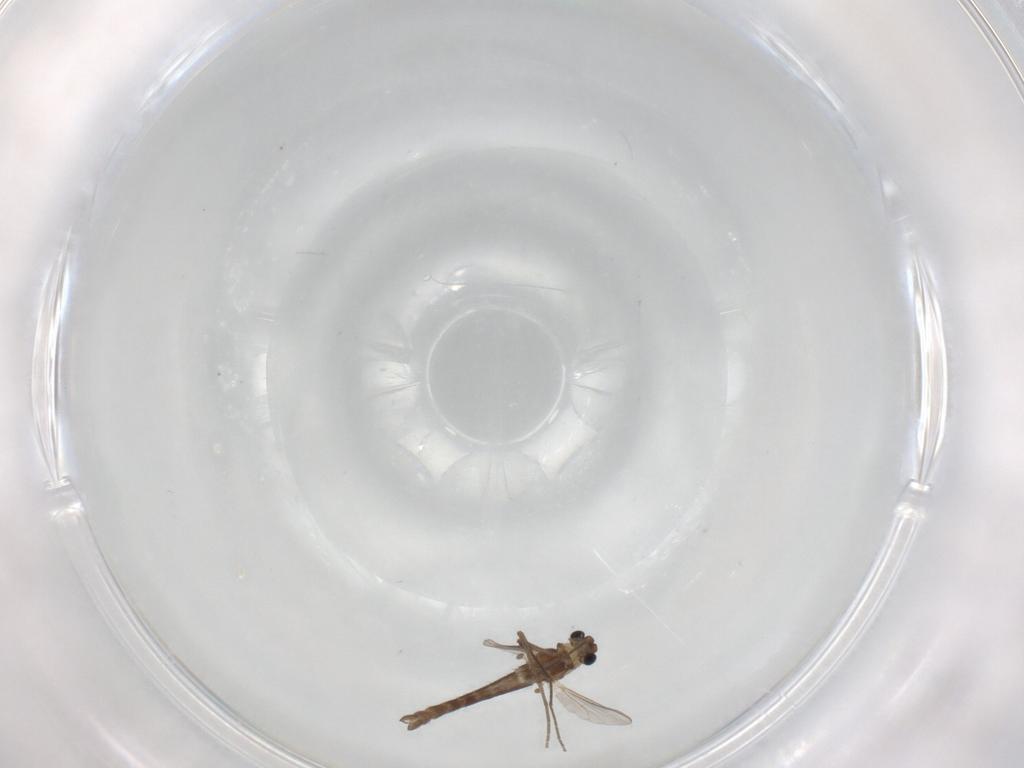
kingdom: Animalia
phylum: Arthropoda
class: Insecta
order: Diptera
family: Chironomidae
